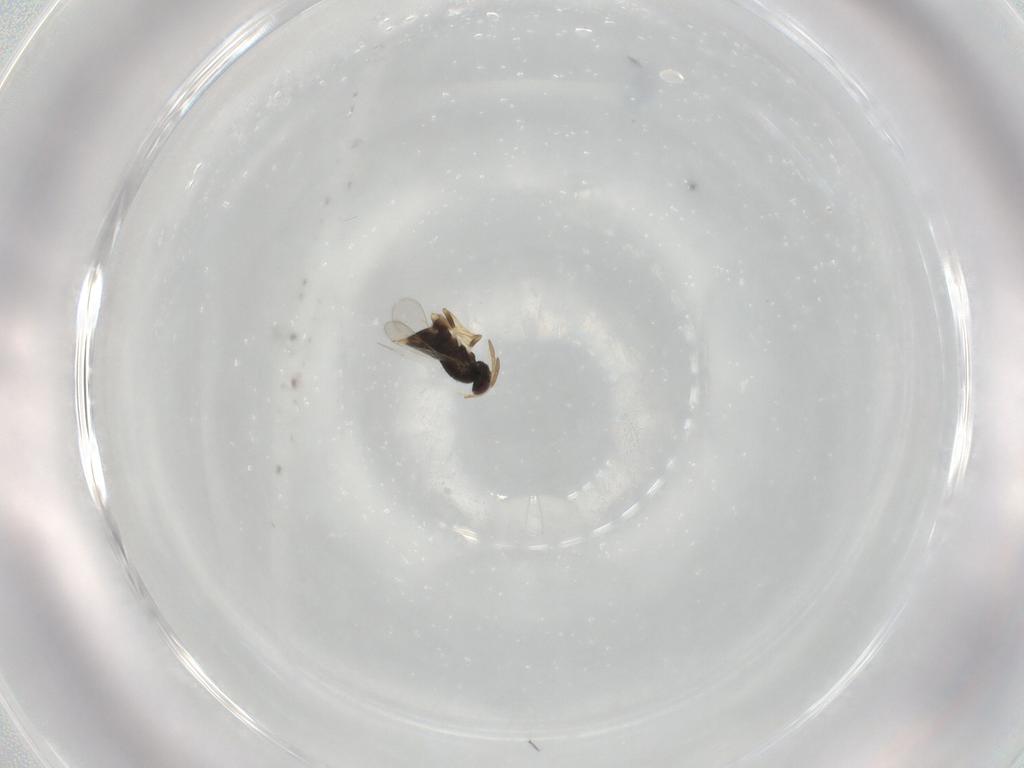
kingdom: Animalia
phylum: Arthropoda
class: Insecta
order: Hymenoptera
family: Aphelinidae
